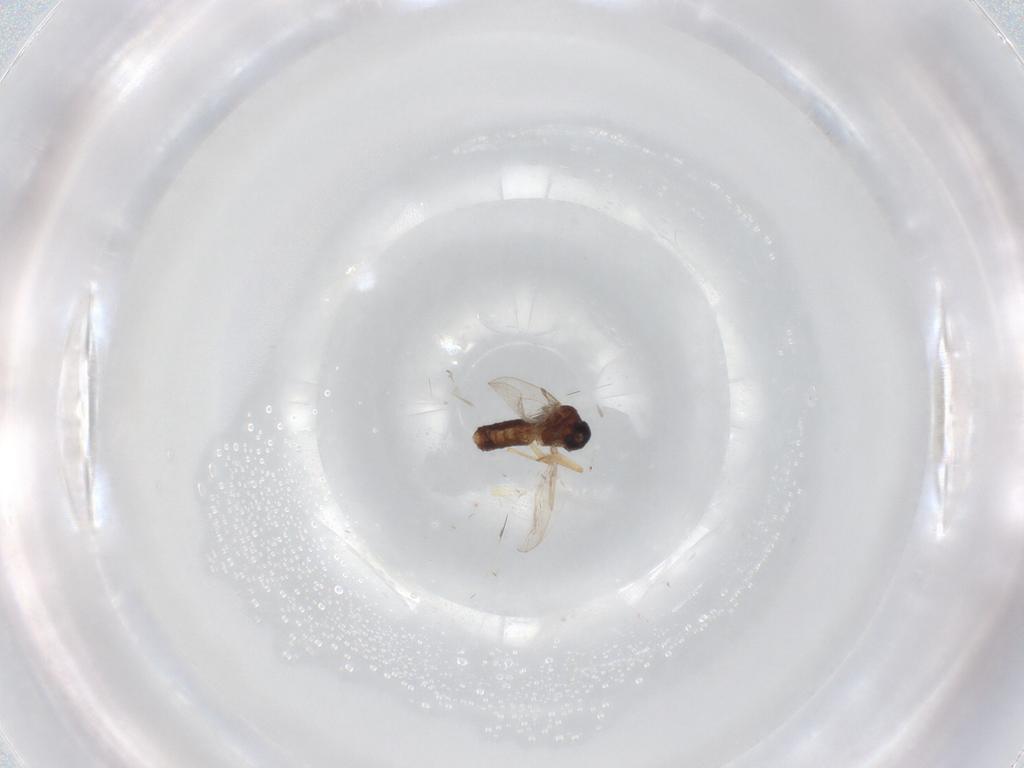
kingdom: Animalia
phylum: Arthropoda
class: Insecta
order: Diptera
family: Ceratopogonidae
